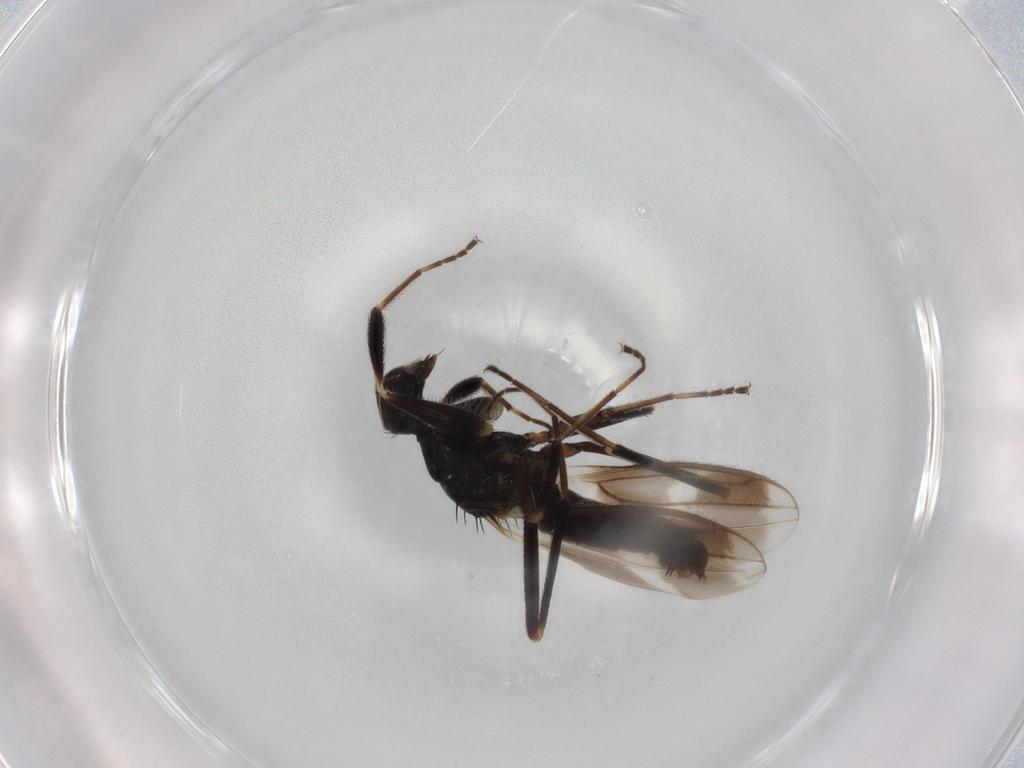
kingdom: Animalia
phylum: Arthropoda
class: Insecta
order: Diptera
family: Hybotidae
